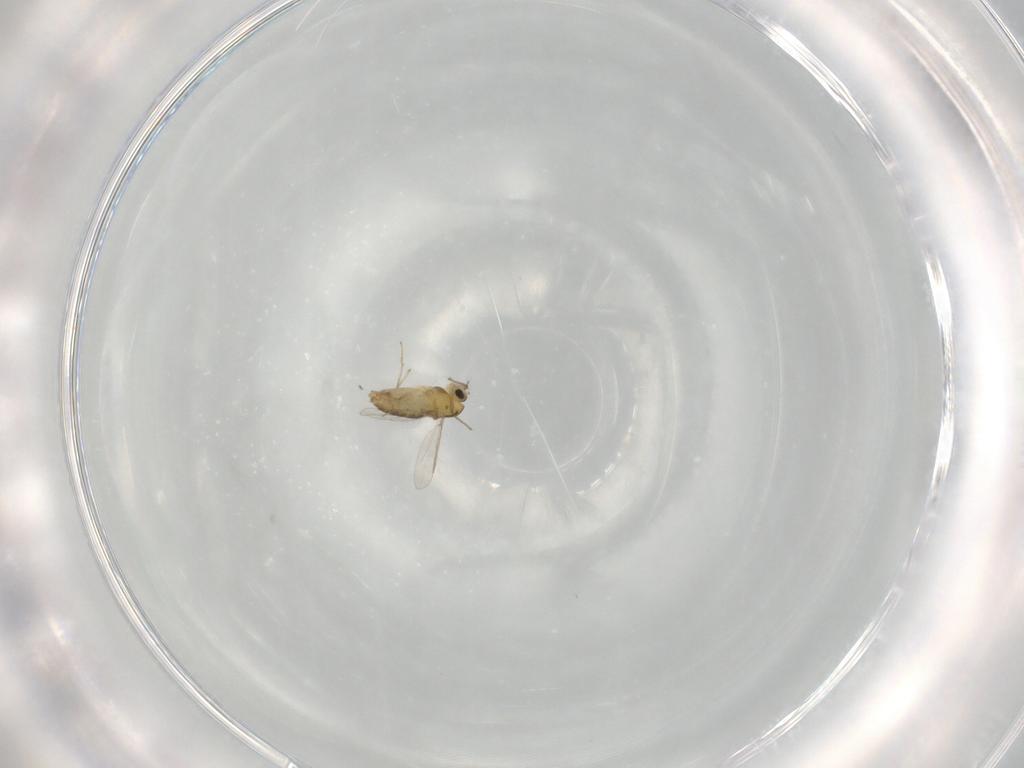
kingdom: Animalia
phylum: Arthropoda
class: Insecta
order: Diptera
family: Chironomidae
